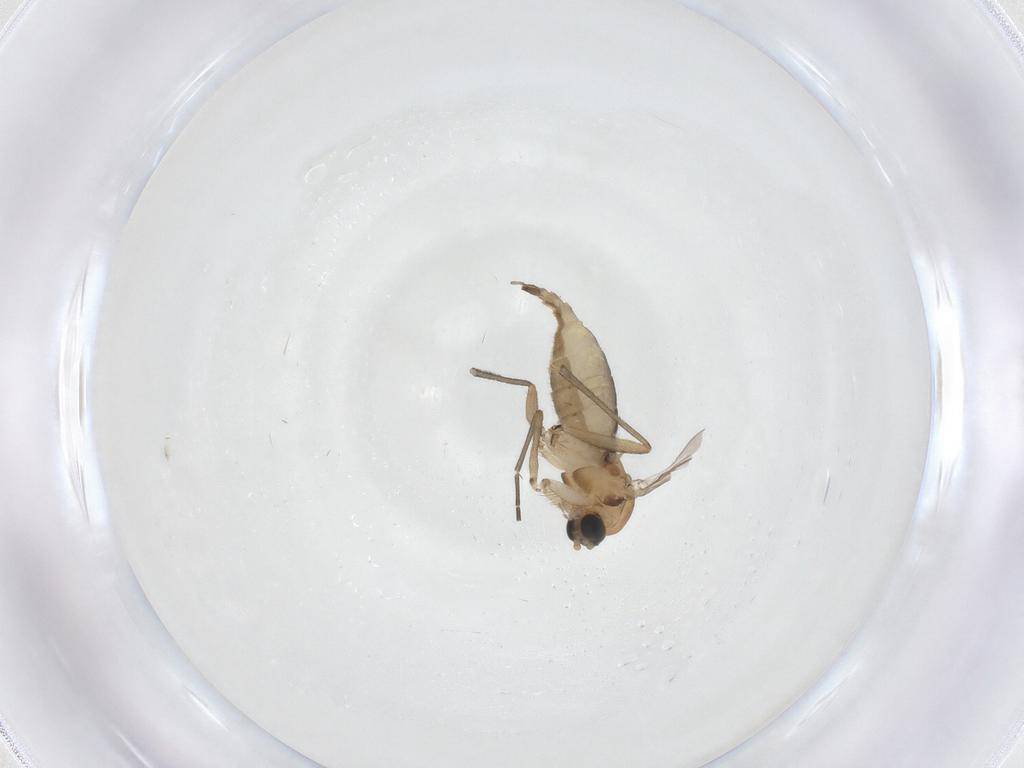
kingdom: Animalia
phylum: Arthropoda
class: Insecta
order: Diptera
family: Sciaridae
